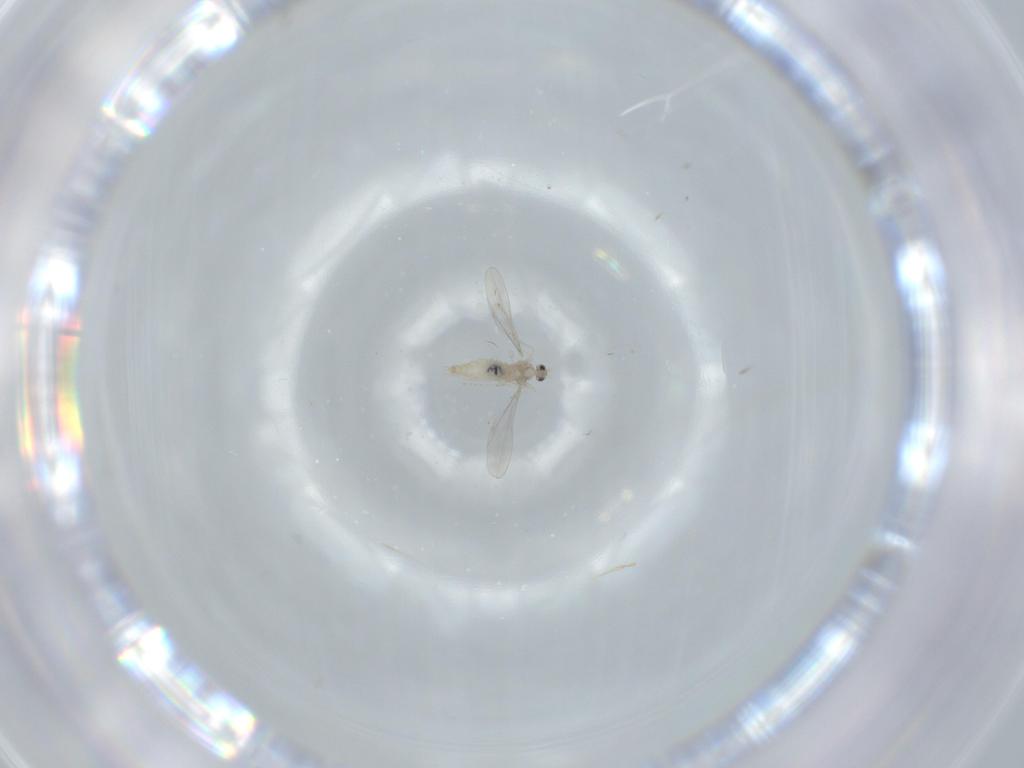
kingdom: Animalia
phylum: Arthropoda
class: Insecta
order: Diptera
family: Cecidomyiidae
